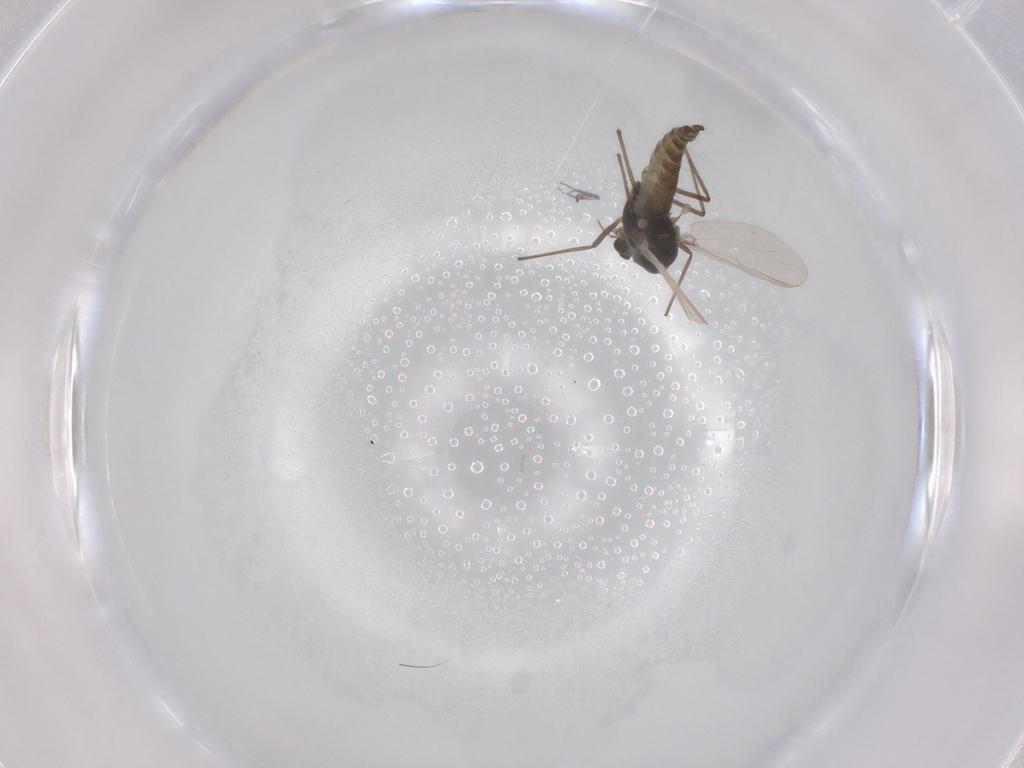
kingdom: Animalia
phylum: Arthropoda
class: Insecta
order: Diptera
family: Chironomidae
